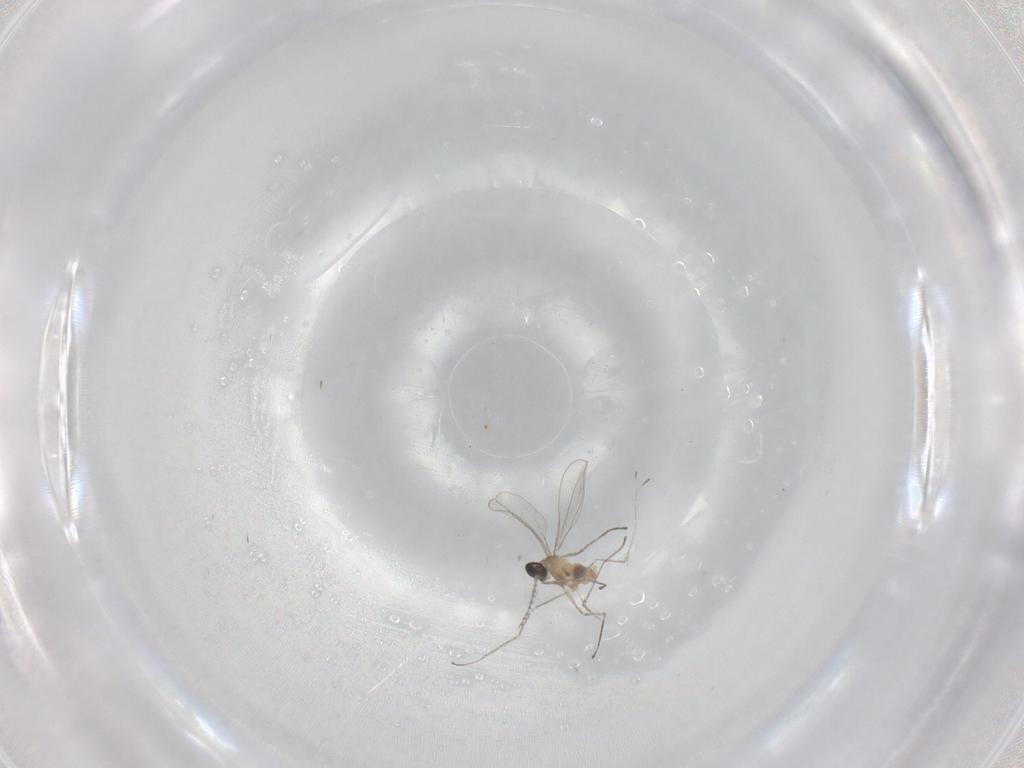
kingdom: Animalia
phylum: Arthropoda
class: Insecta
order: Diptera
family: Cecidomyiidae
